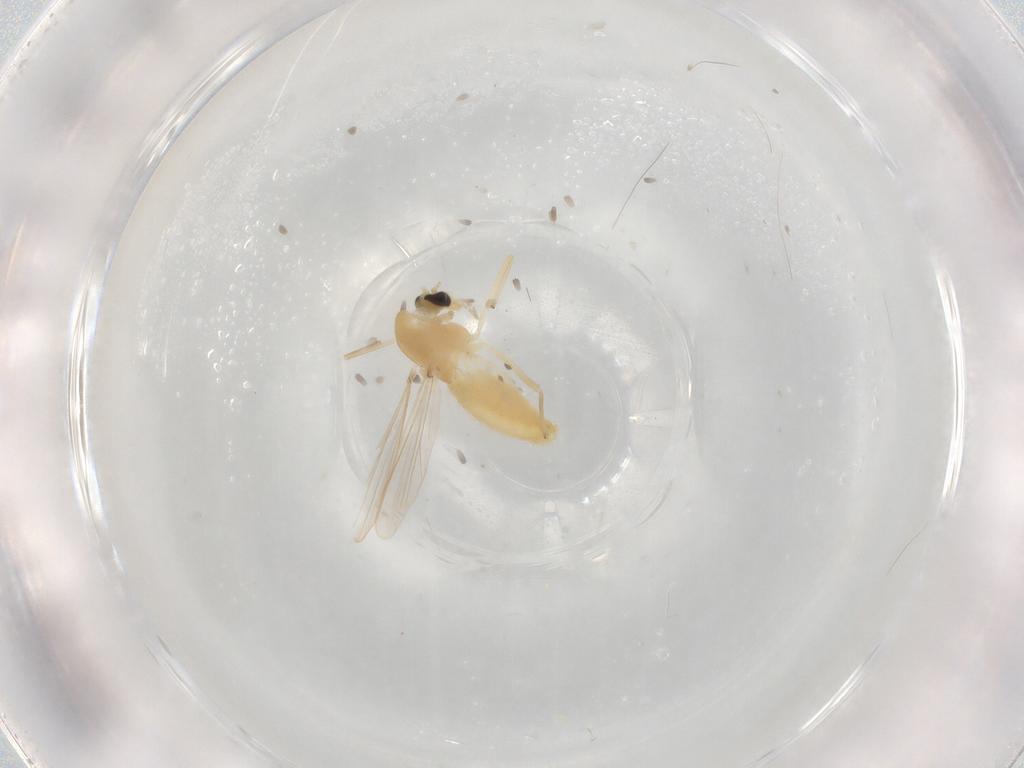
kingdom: Animalia
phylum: Arthropoda
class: Insecta
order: Diptera
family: Chironomidae
